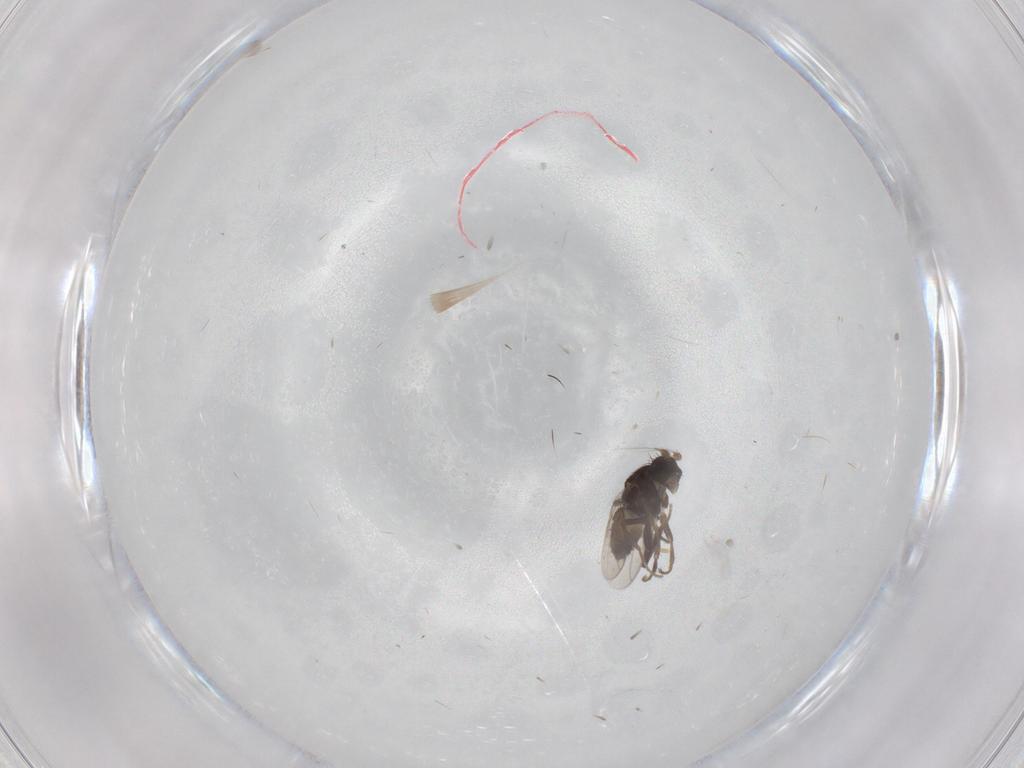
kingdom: Animalia
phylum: Arthropoda
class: Insecta
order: Diptera
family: Sphaeroceridae
